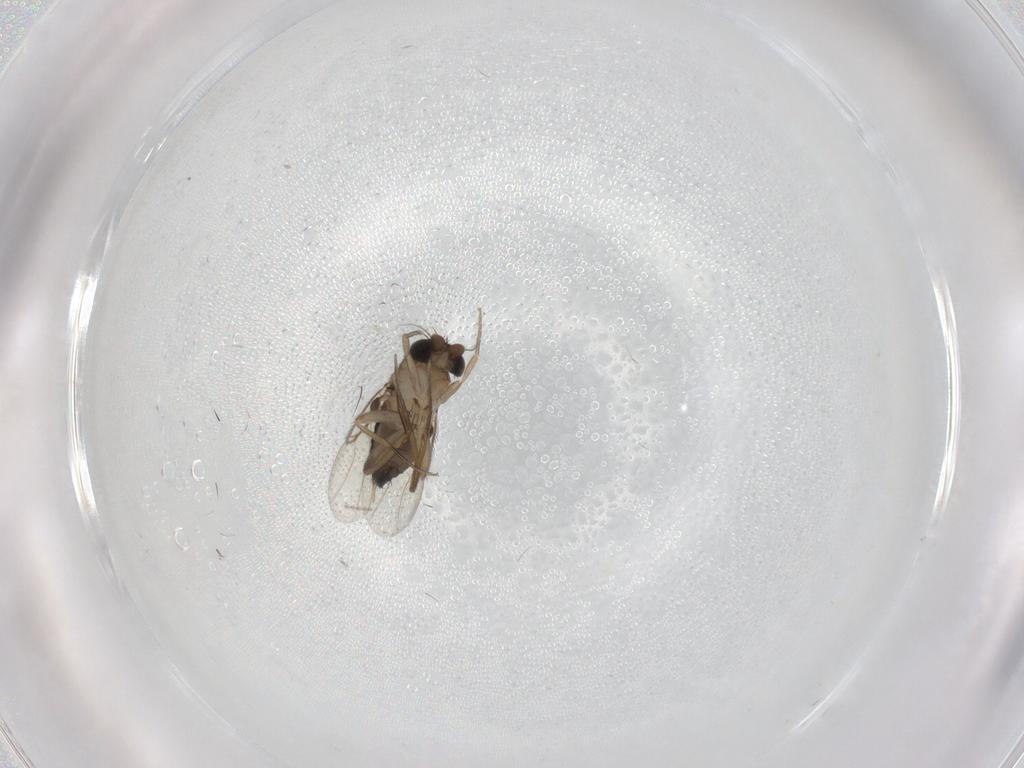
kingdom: Animalia
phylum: Arthropoda
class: Insecta
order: Diptera
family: Phoridae
